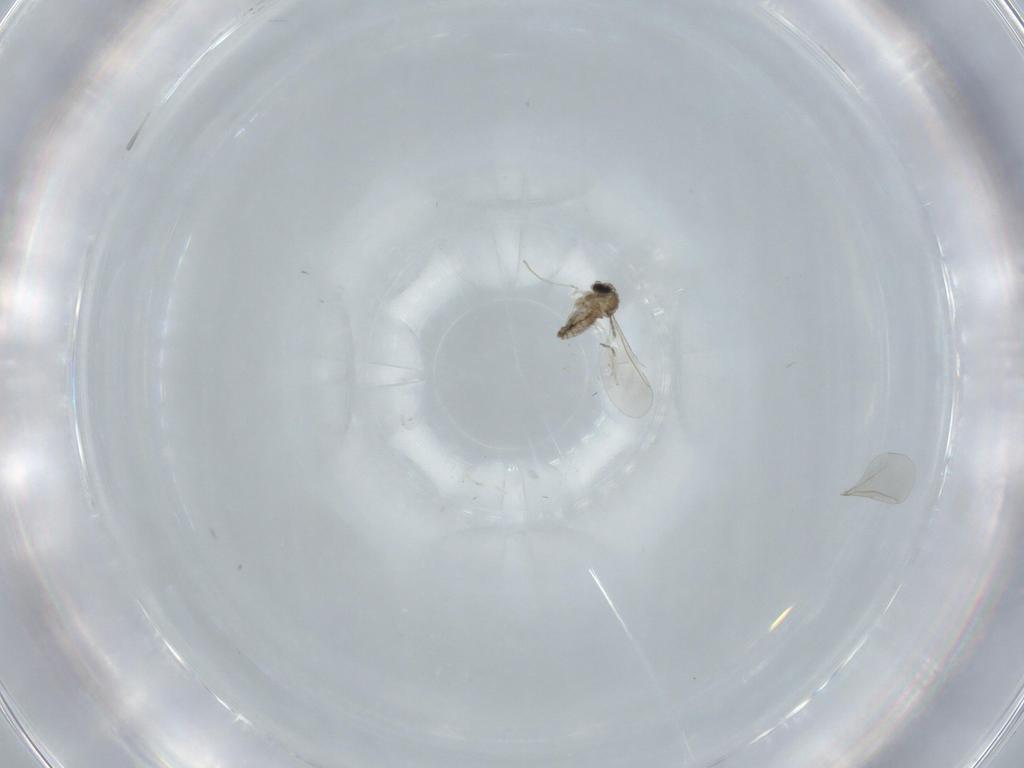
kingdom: Animalia
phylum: Arthropoda
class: Insecta
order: Diptera
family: Cecidomyiidae
